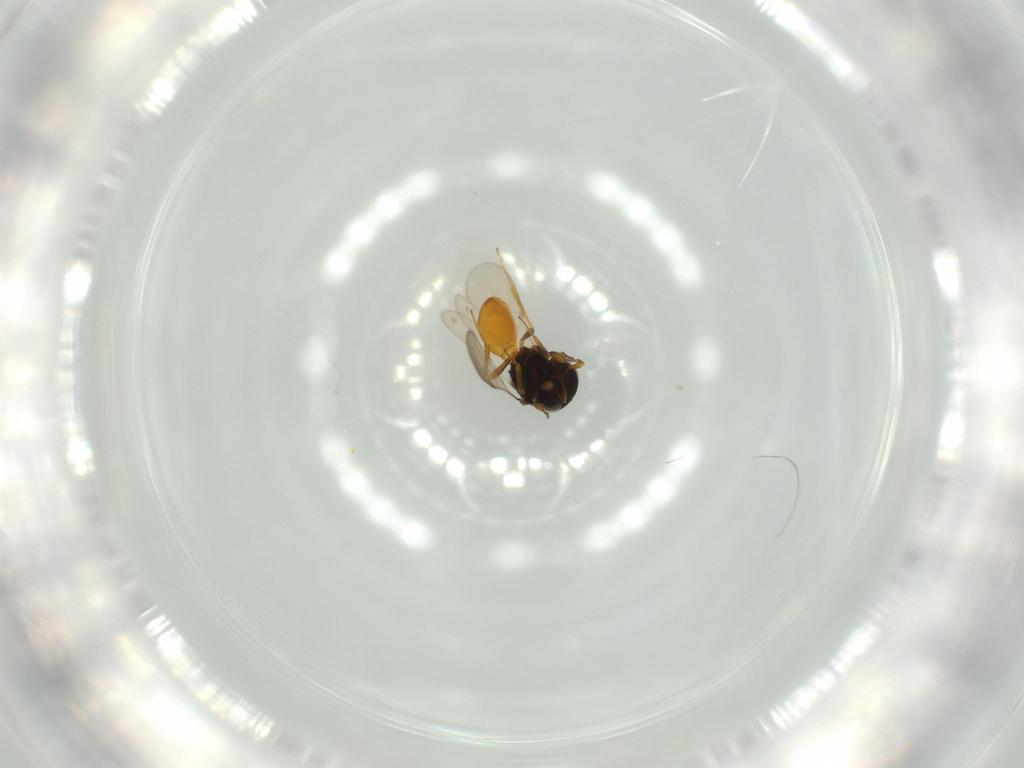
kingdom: Animalia
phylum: Arthropoda
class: Insecta
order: Hymenoptera
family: Scelionidae
